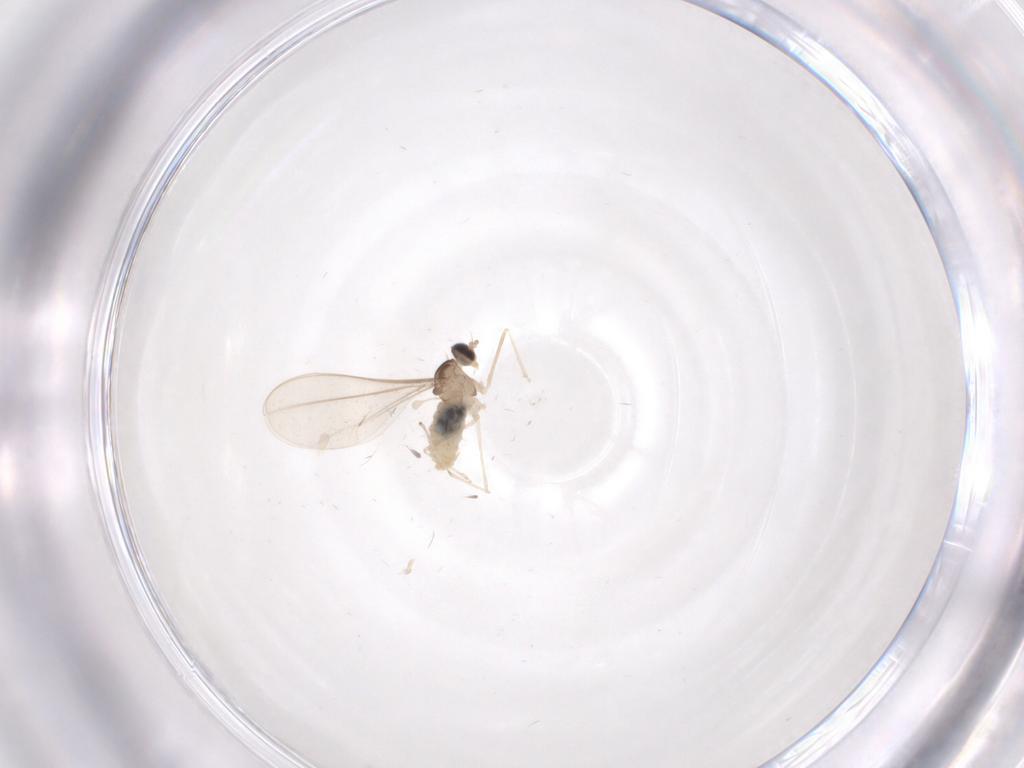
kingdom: Animalia
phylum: Arthropoda
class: Insecta
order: Diptera
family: Cecidomyiidae
